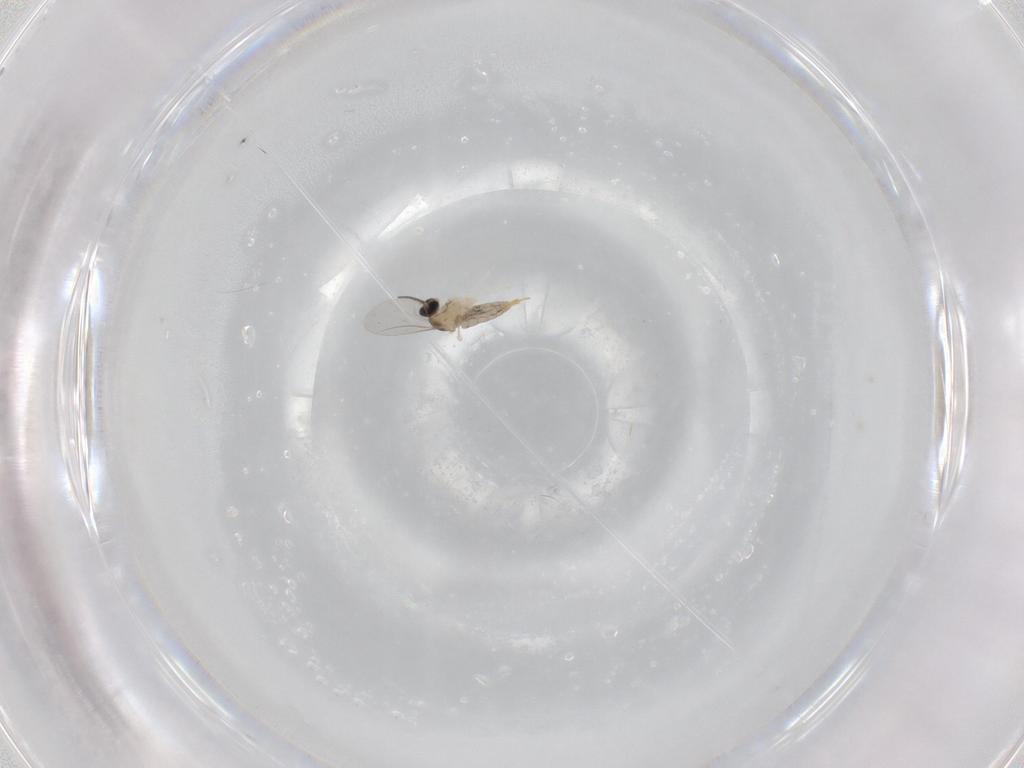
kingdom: Animalia
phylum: Arthropoda
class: Insecta
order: Diptera
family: Cecidomyiidae
